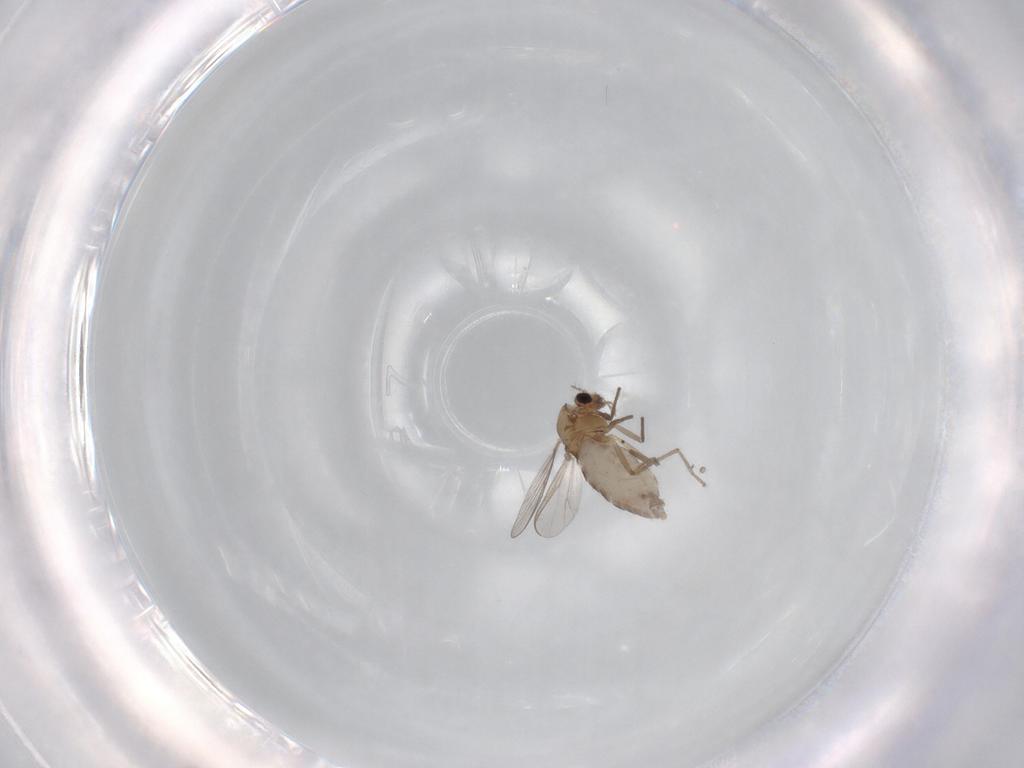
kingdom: Animalia
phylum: Arthropoda
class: Insecta
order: Diptera
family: Chironomidae
